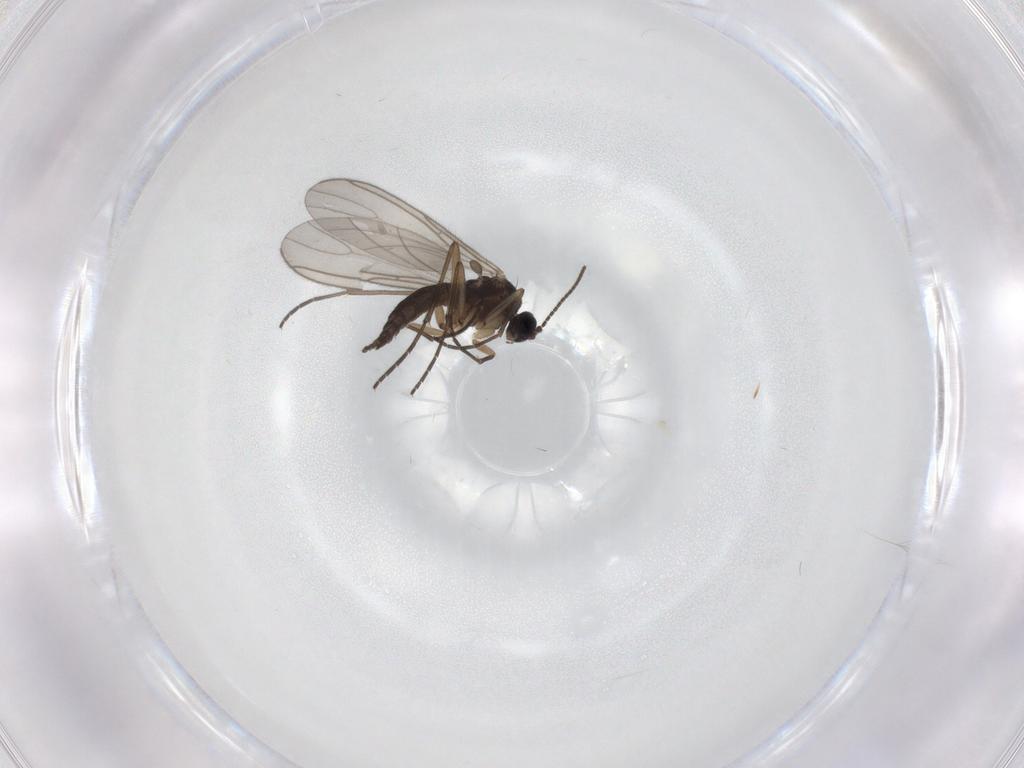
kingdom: Animalia
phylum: Arthropoda
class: Insecta
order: Diptera
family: Sciaridae
